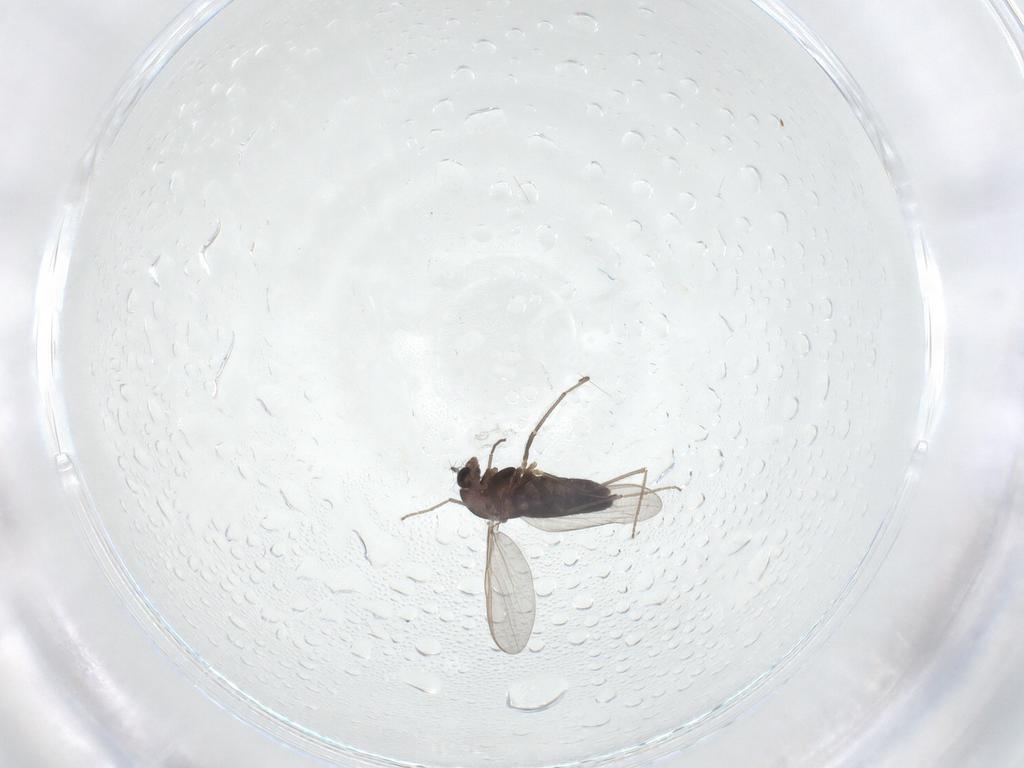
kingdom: Animalia
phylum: Arthropoda
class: Insecta
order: Diptera
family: Chironomidae
